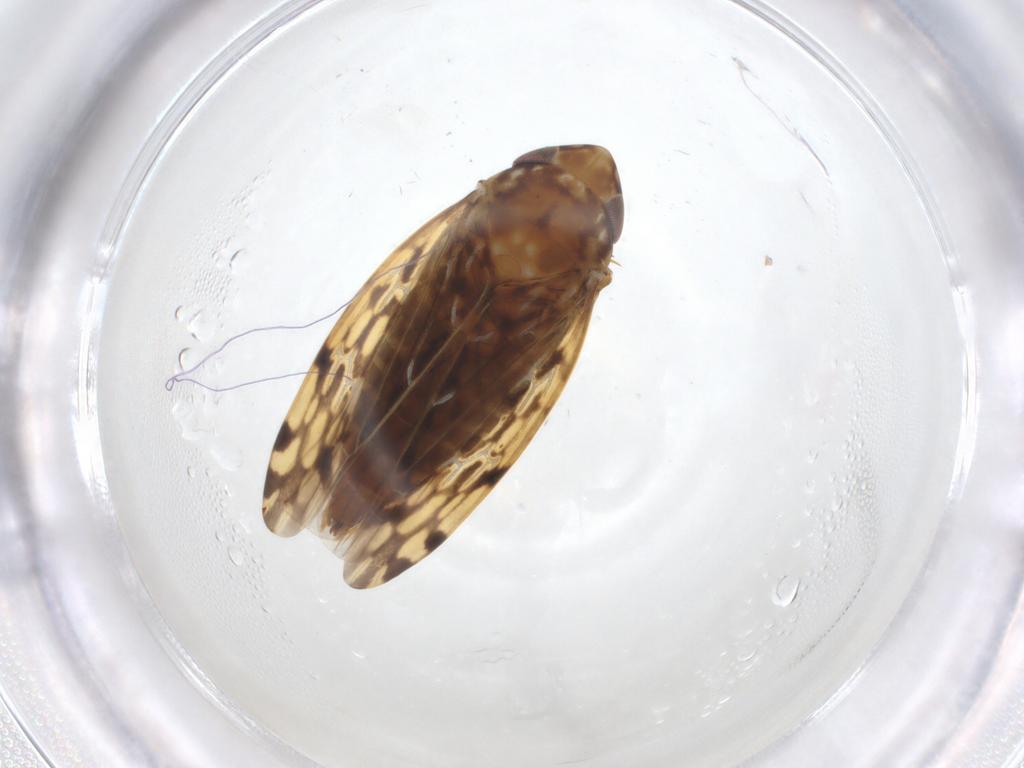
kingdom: Animalia
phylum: Arthropoda
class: Insecta
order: Hemiptera
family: Cicadellidae
